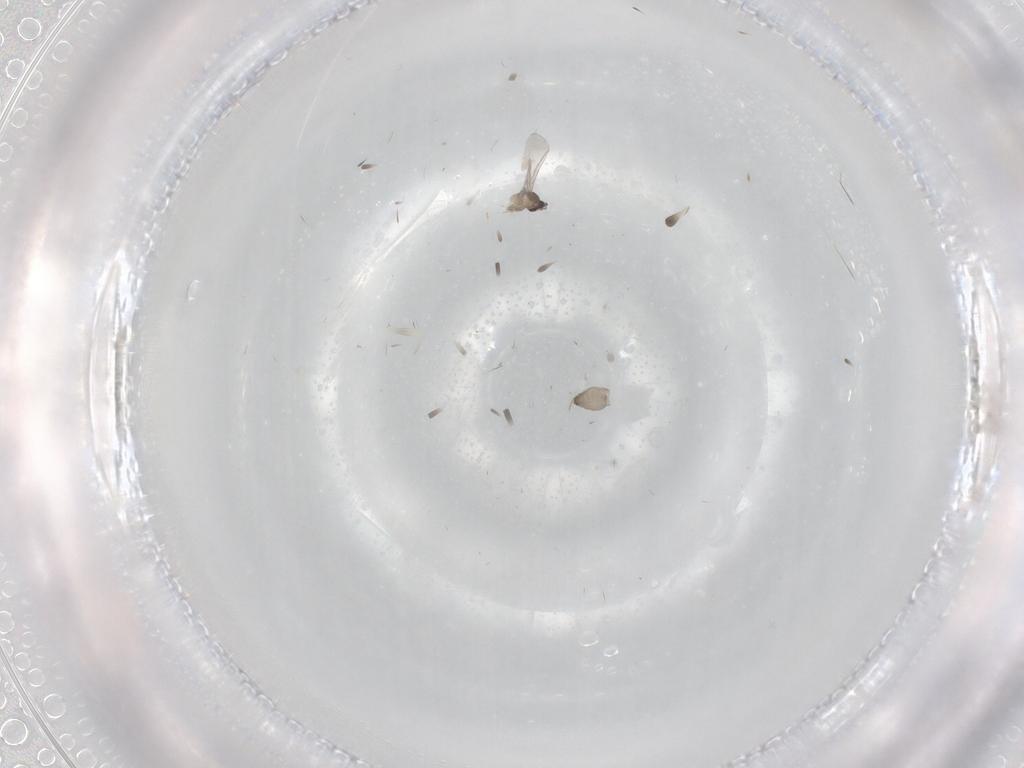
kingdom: Animalia
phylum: Arthropoda
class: Insecta
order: Diptera
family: Cecidomyiidae
